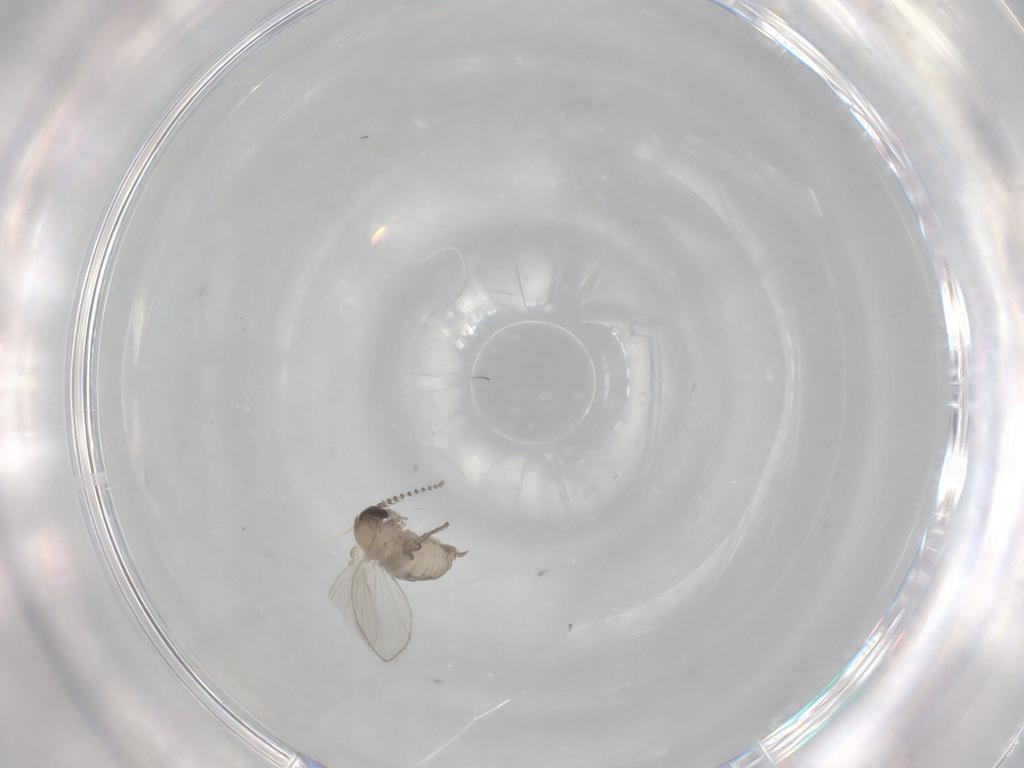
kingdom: Animalia
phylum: Arthropoda
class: Insecta
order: Diptera
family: Psychodidae
